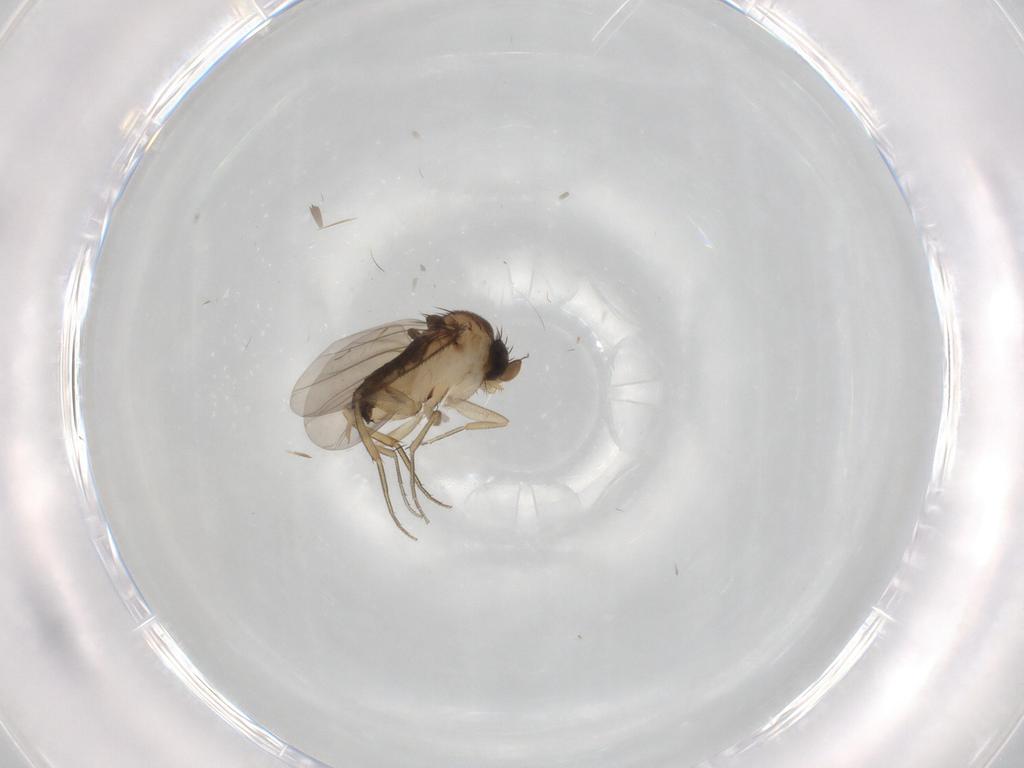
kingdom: Animalia
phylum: Arthropoda
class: Insecta
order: Diptera
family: Phoridae
